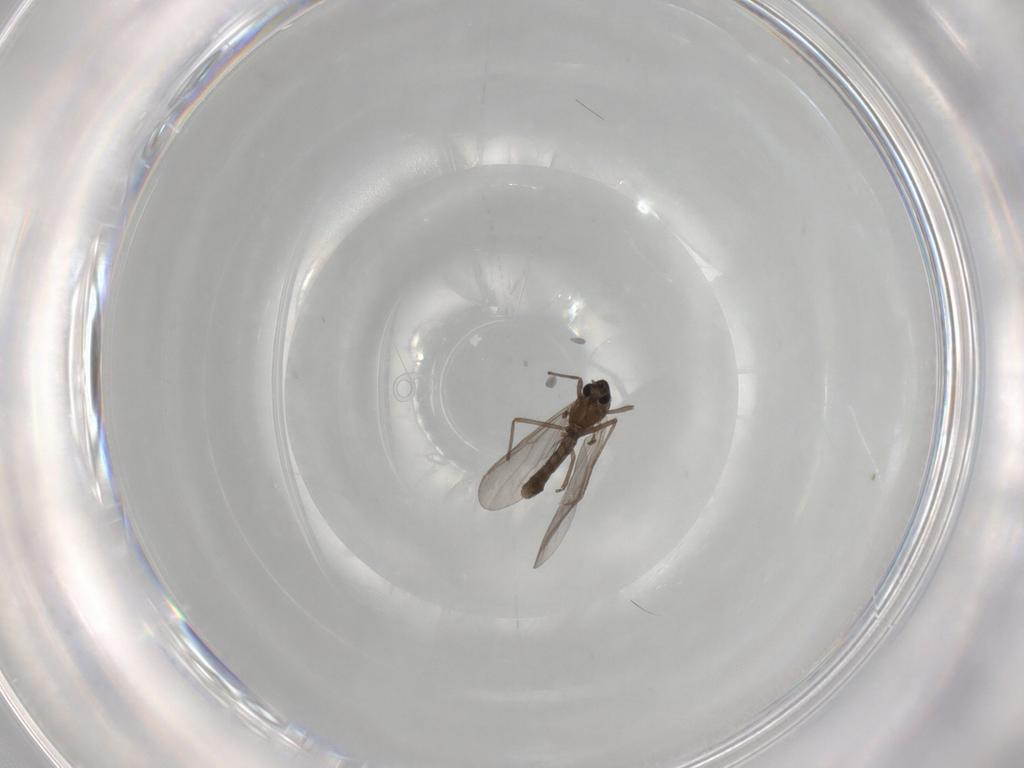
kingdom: Animalia
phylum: Arthropoda
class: Insecta
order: Diptera
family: Chironomidae
